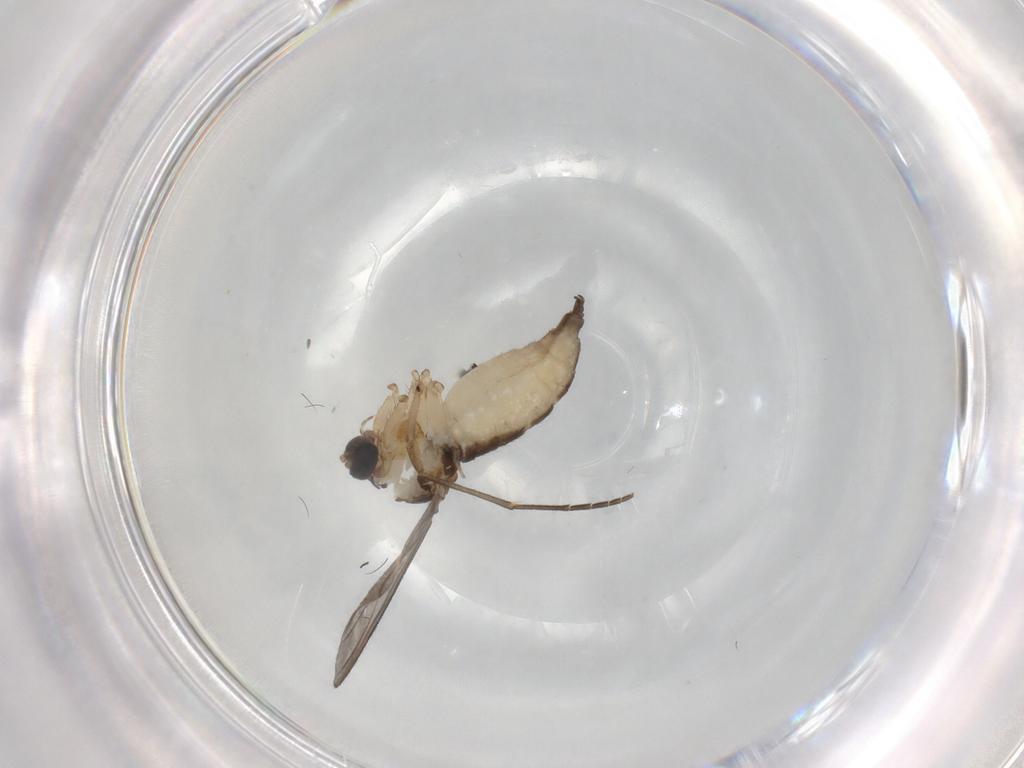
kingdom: Animalia
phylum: Arthropoda
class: Insecta
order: Diptera
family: Sciaridae
